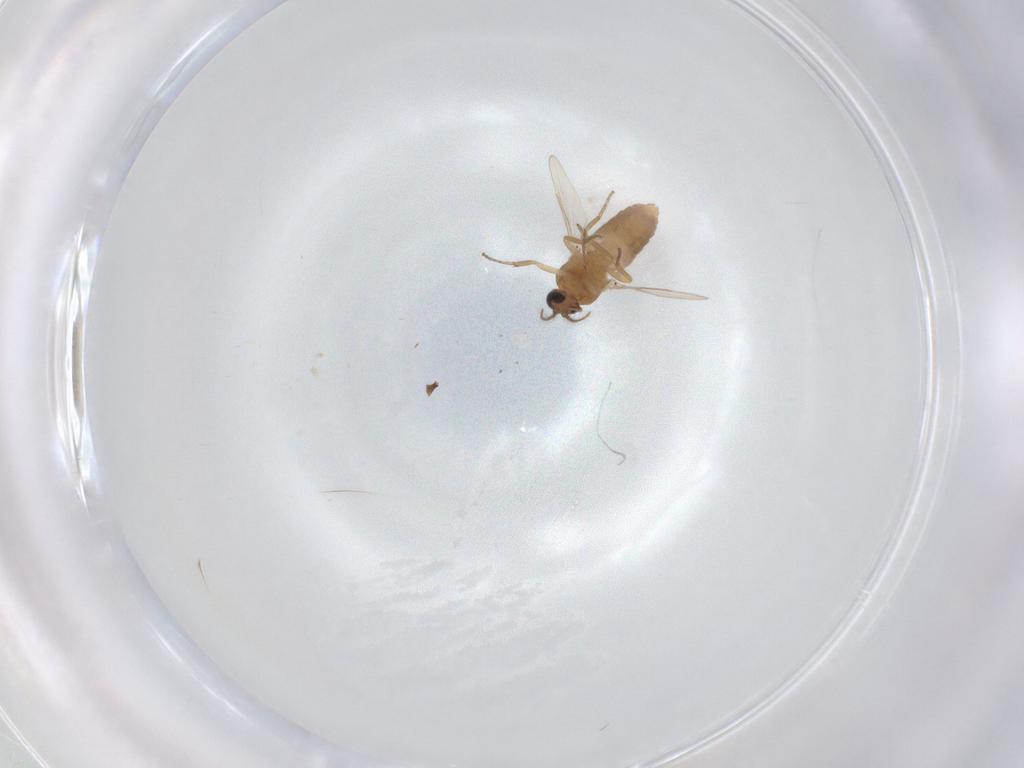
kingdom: Animalia
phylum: Arthropoda
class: Insecta
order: Diptera
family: Ceratopogonidae
